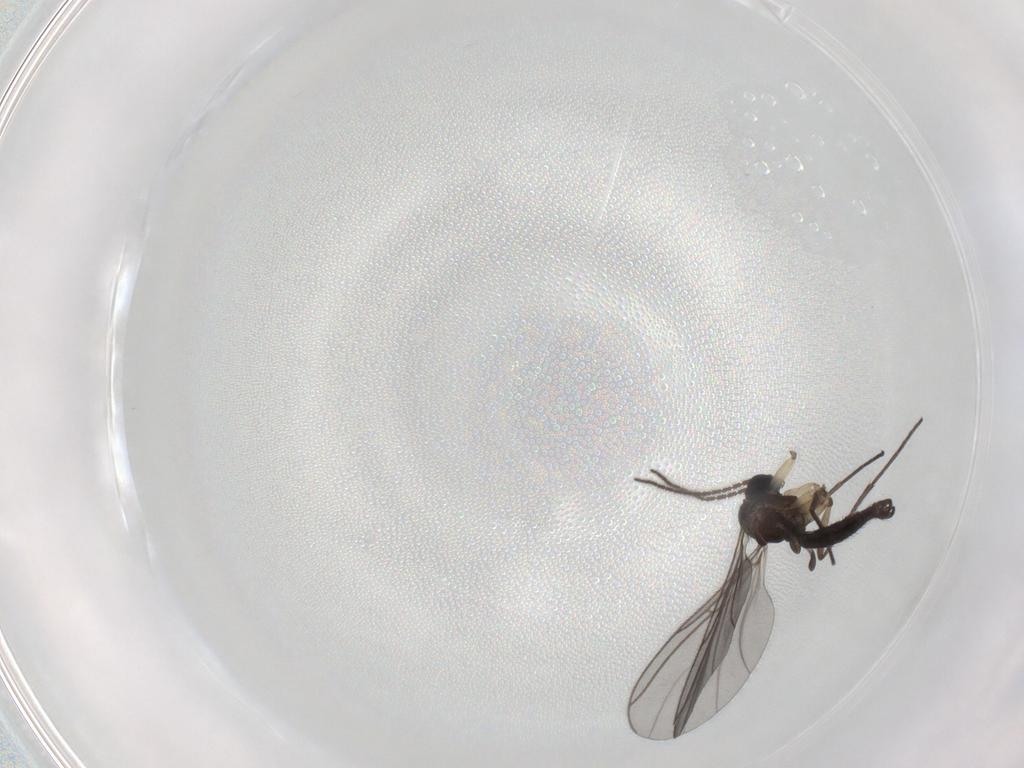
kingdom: Animalia
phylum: Arthropoda
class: Insecta
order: Diptera
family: Sciaridae
